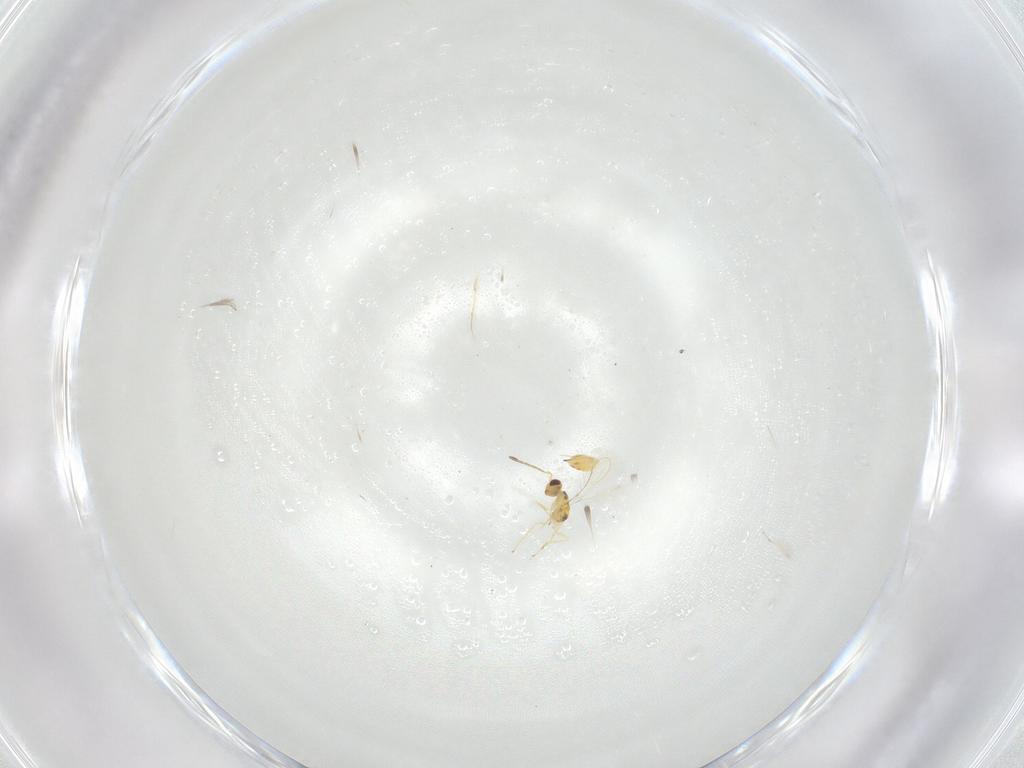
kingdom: Animalia
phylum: Arthropoda
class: Insecta
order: Hymenoptera
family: Mymaridae
